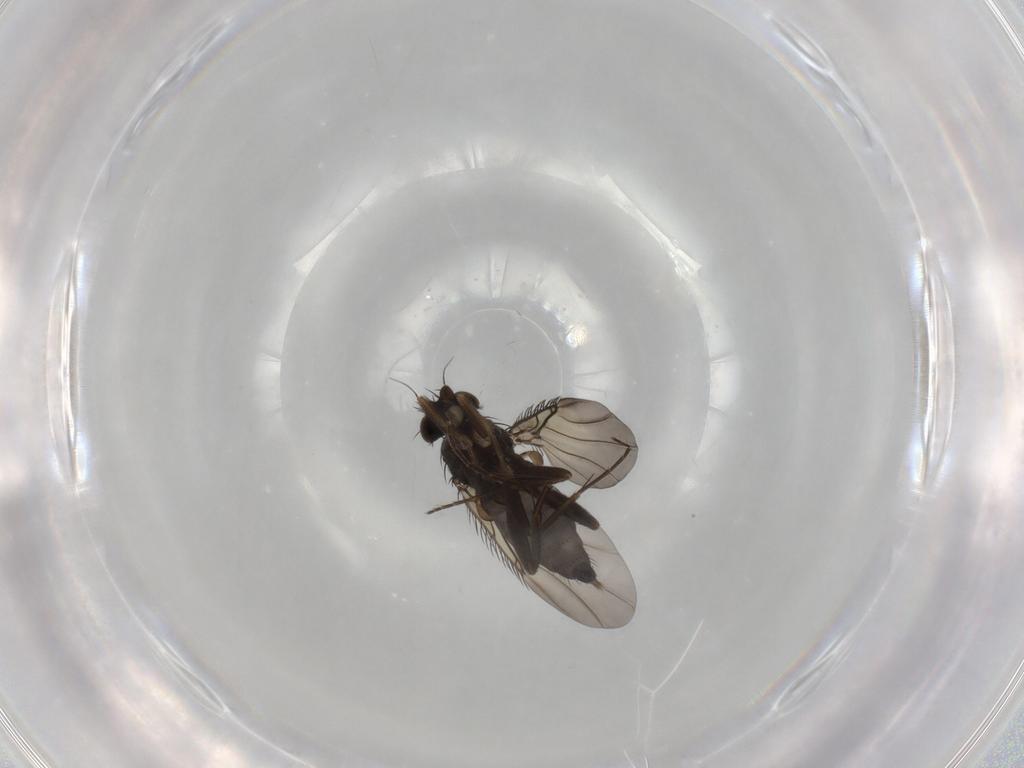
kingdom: Animalia
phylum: Arthropoda
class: Insecta
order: Diptera
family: Phoridae
